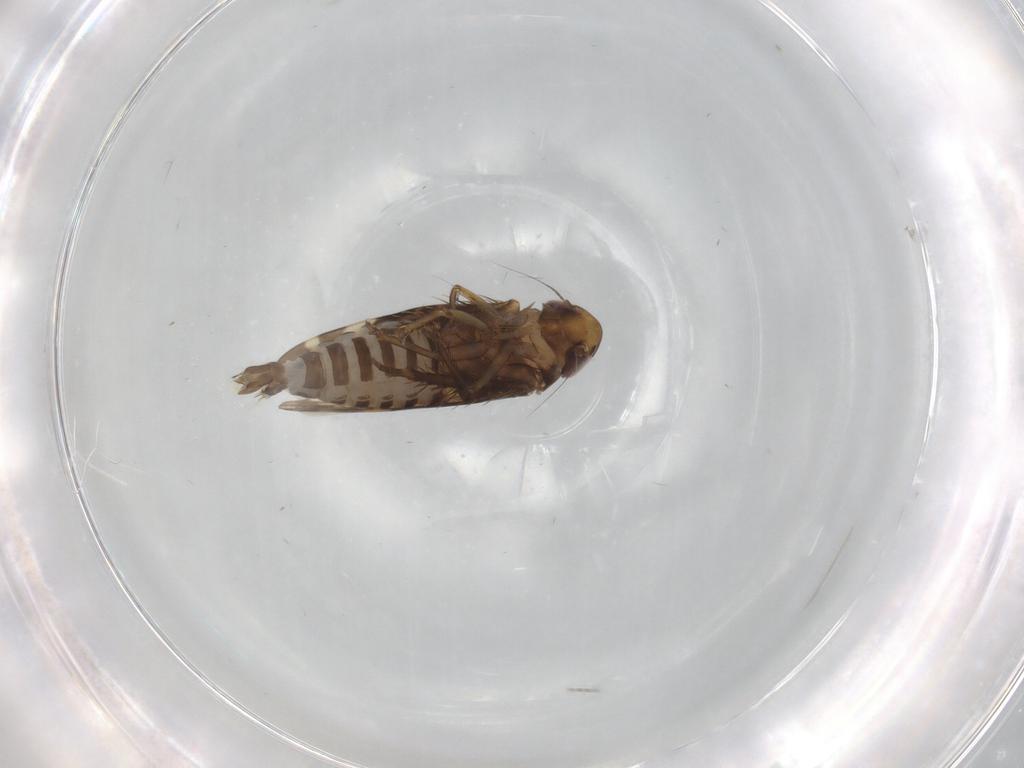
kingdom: Animalia
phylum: Arthropoda
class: Insecta
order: Hemiptera
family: Cicadellidae
